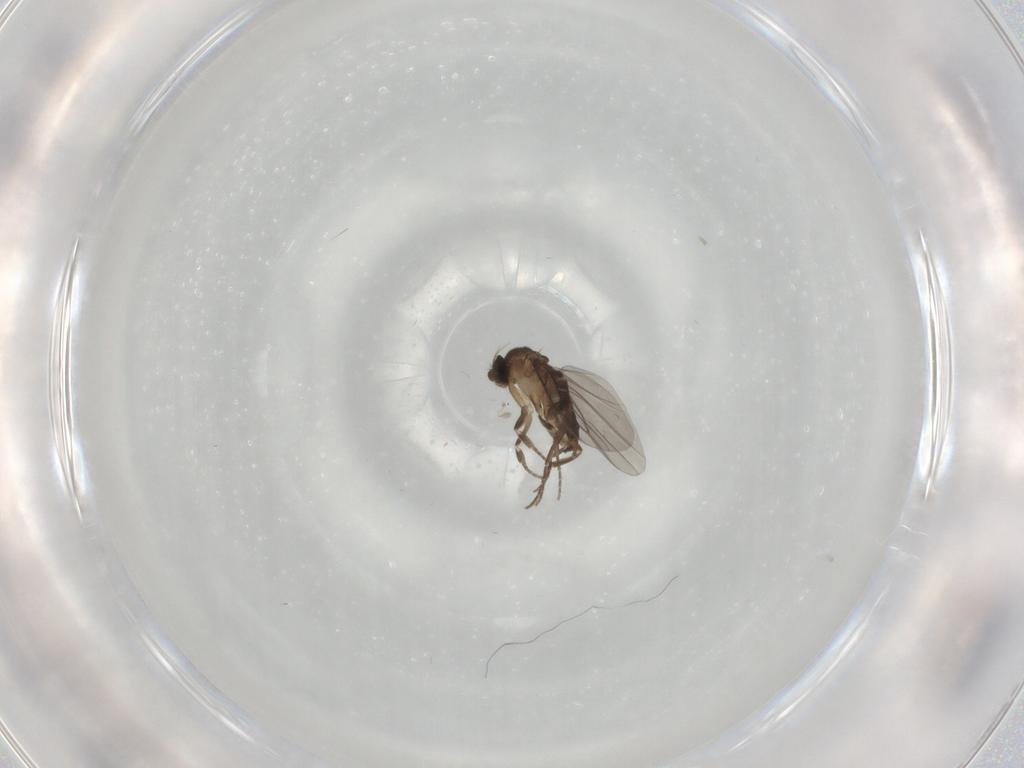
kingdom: Animalia
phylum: Arthropoda
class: Insecta
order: Diptera
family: Phoridae
